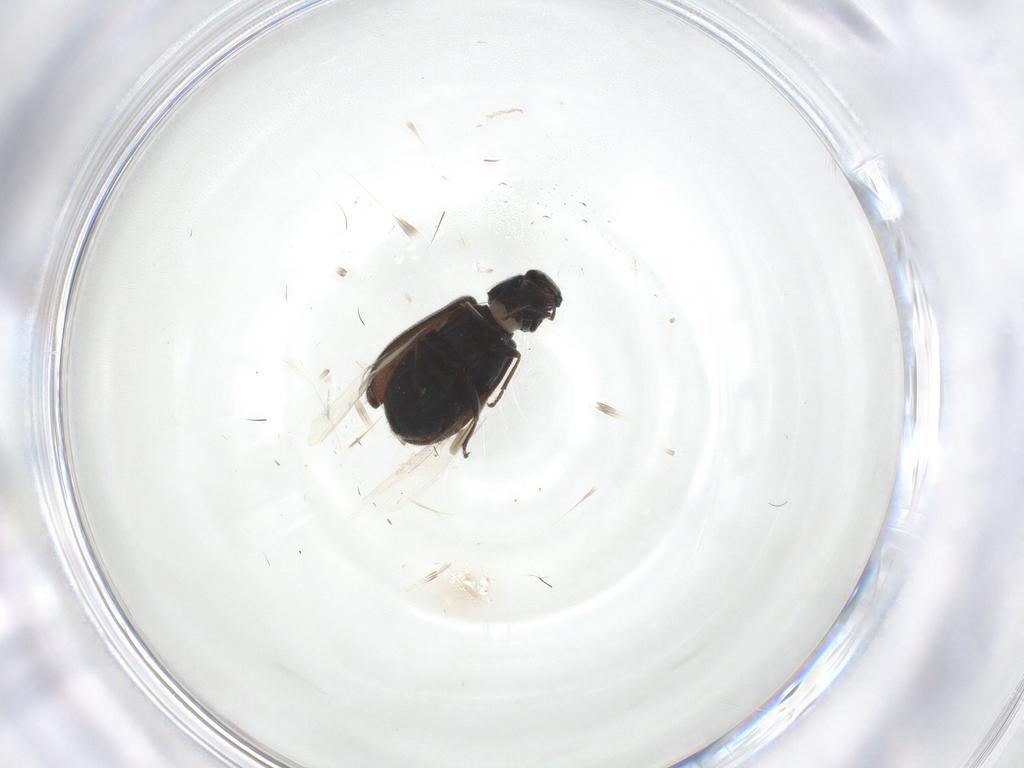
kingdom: Animalia
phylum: Arthropoda
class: Insecta
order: Coleoptera
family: Melyridae
